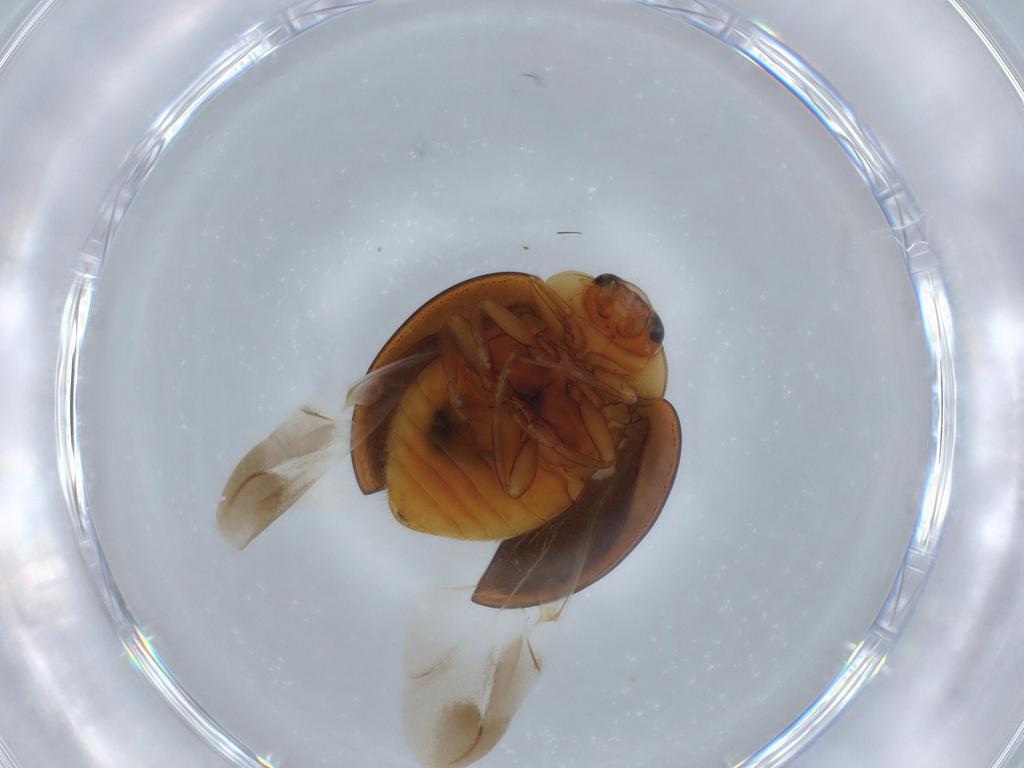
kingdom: Animalia
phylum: Arthropoda
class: Insecta
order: Coleoptera
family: Coccinellidae
